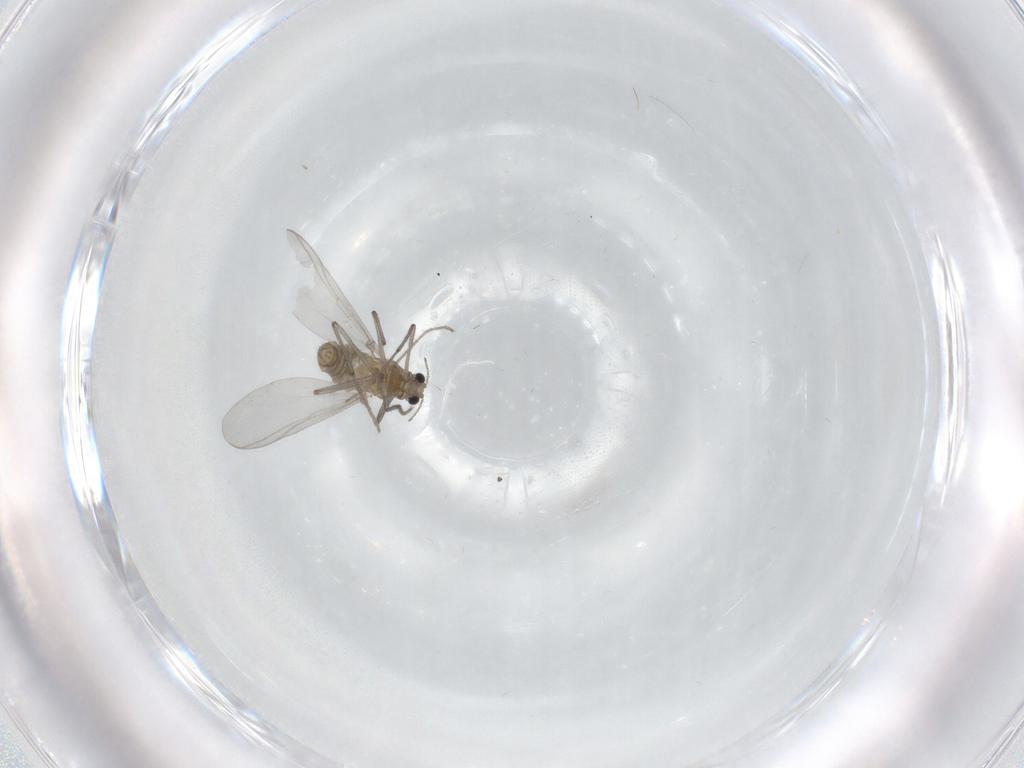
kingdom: Animalia
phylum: Arthropoda
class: Insecta
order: Diptera
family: Chironomidae
